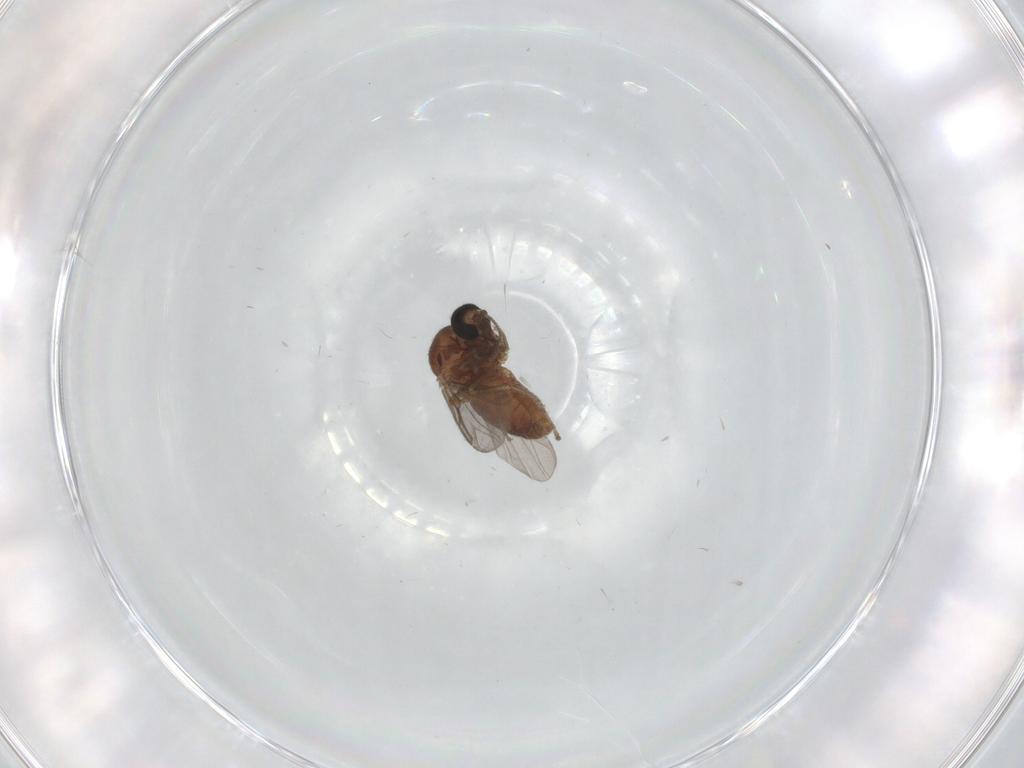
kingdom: Animalia
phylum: Arthropoda
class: Insecta
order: Diptera
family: Ceratopogonidae
